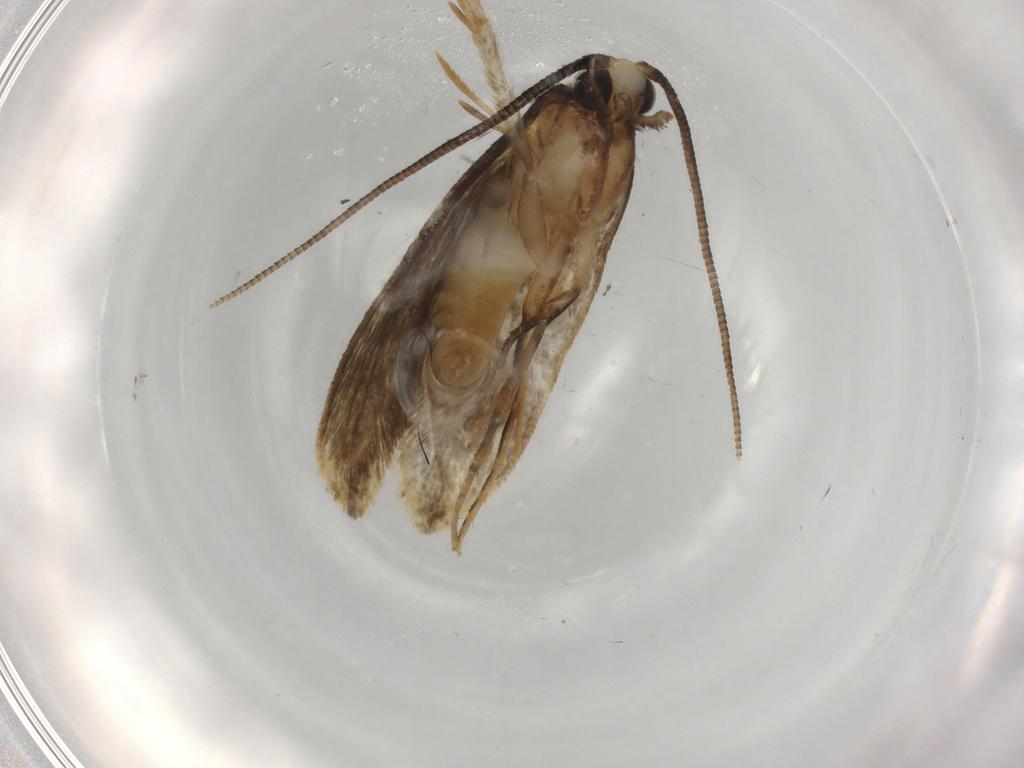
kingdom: Animalia
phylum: Arthropoda
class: Insecta
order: Lepidoptera
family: Tineidae
